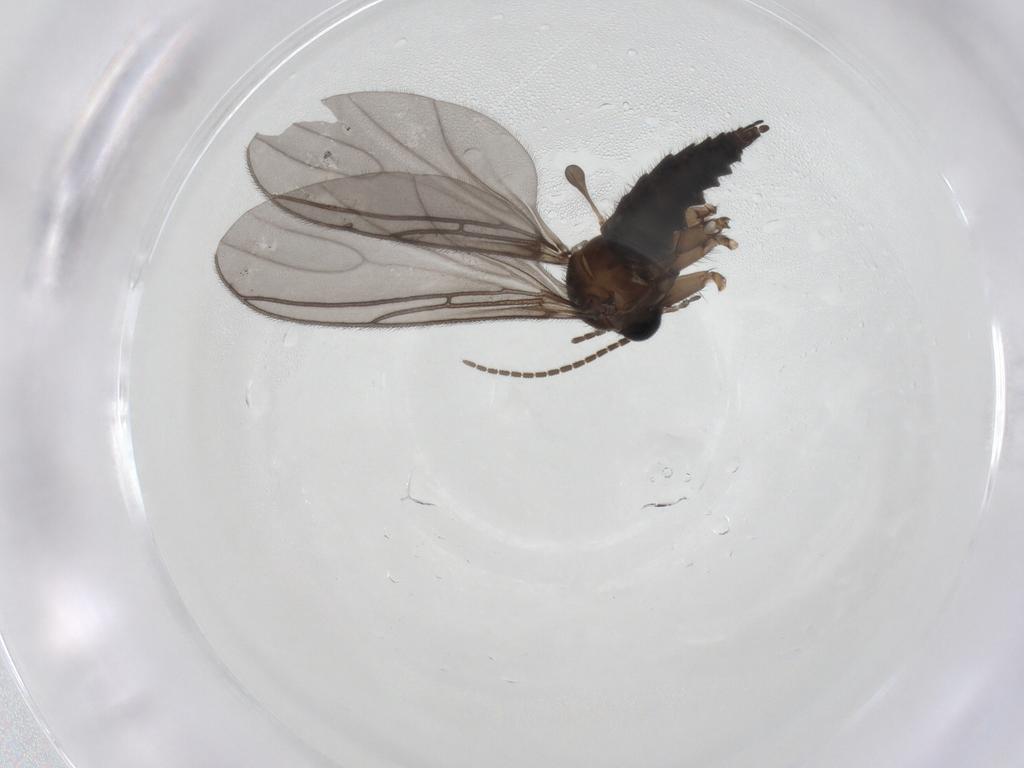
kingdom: Animalia
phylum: Arthropoda
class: Insecta
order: Diptera
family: Sciaridae
